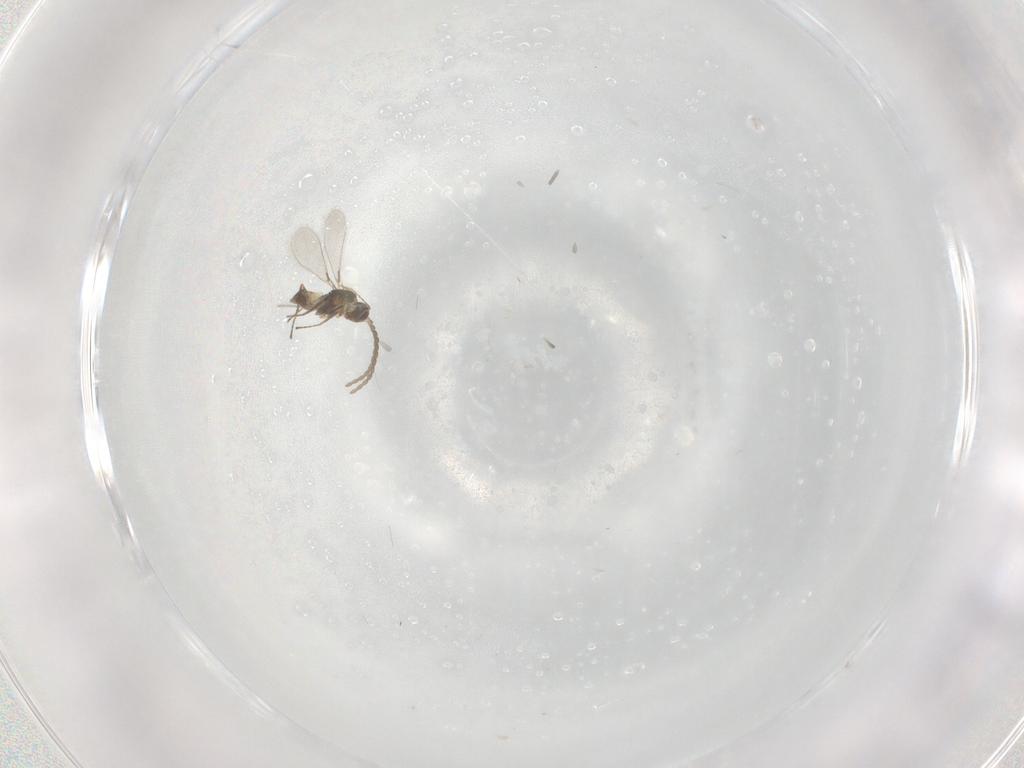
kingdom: Animalia
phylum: Arthropoda
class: Insecta
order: Hymenoptera
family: Mymaridae
